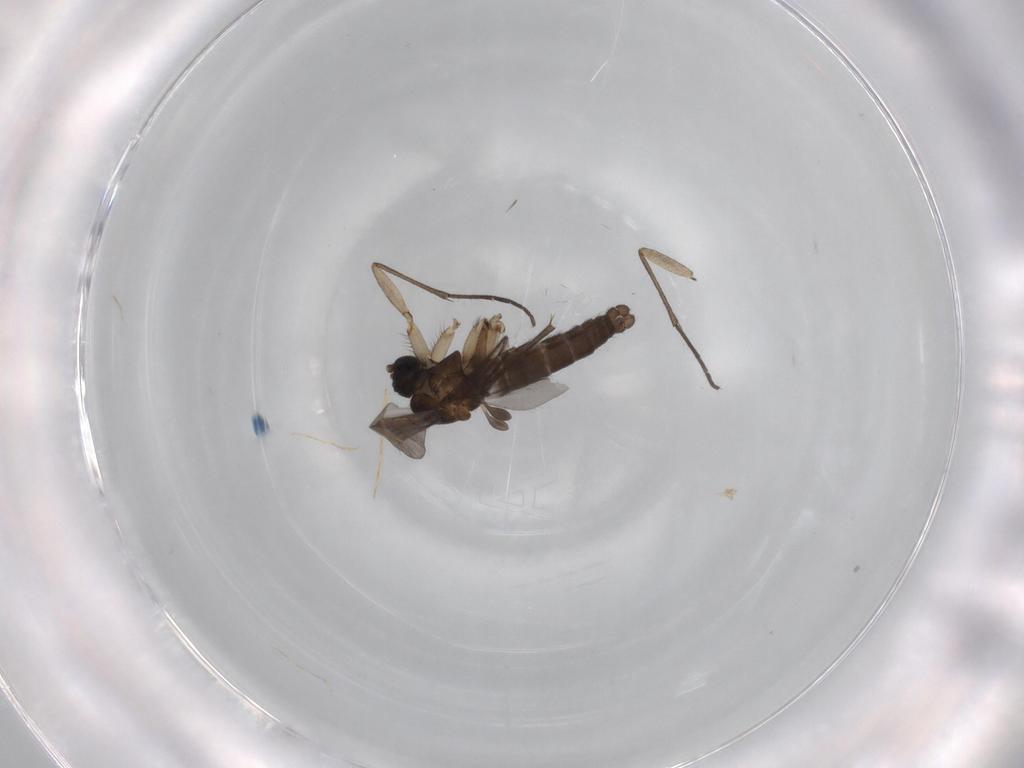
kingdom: Animalia
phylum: Arthropoda
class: Insecta
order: Diptera
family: Sciaridae
